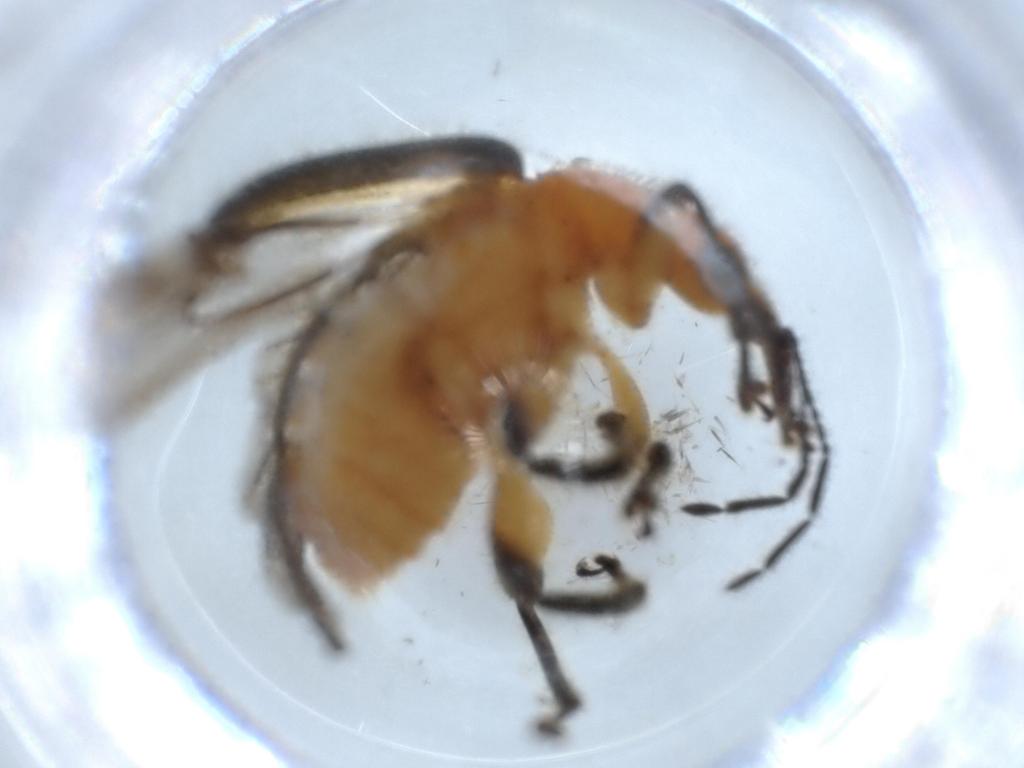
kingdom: Animalia
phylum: Arthropoda
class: Insecta
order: Coleoptera
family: Attelabidae
